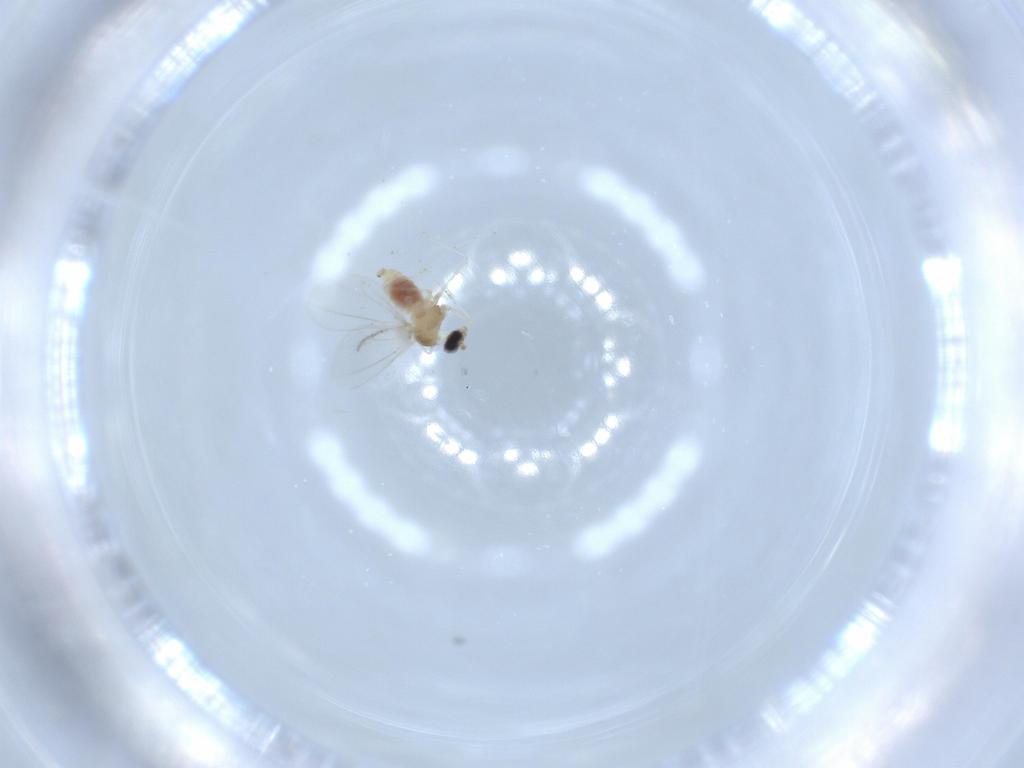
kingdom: Animalia
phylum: Arthropoda
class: Insecta
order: Diptera
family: Cecidomyiidae
